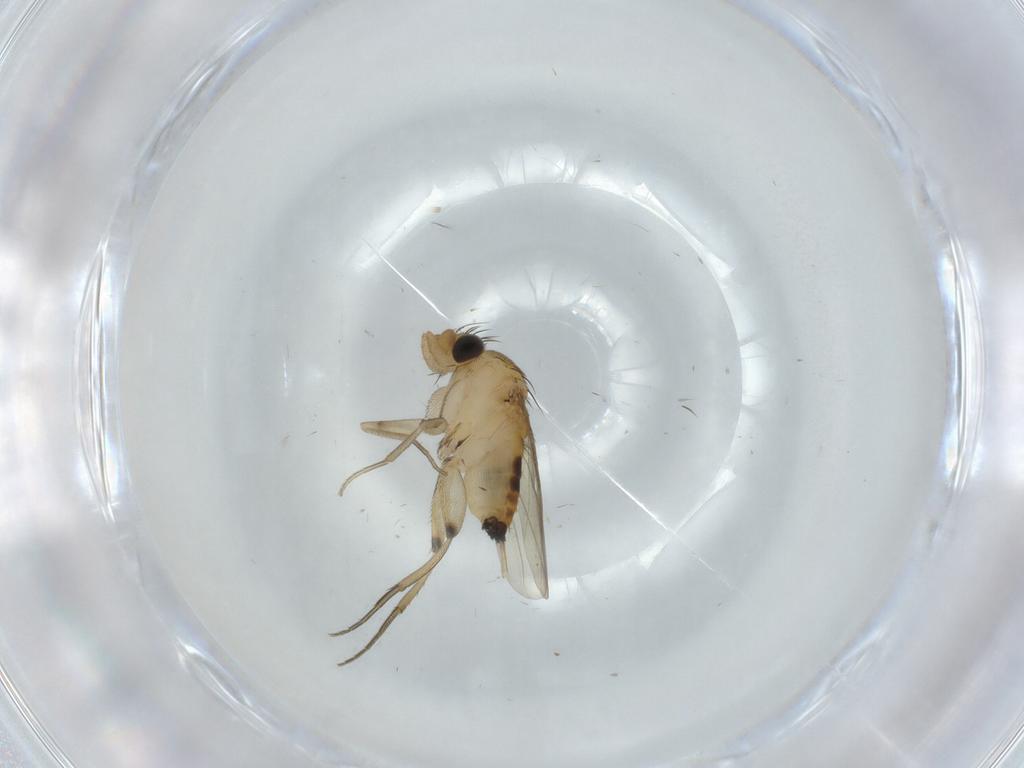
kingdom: Animalia
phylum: Arthropoda
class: Insecta
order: Diptera
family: Phoridae
